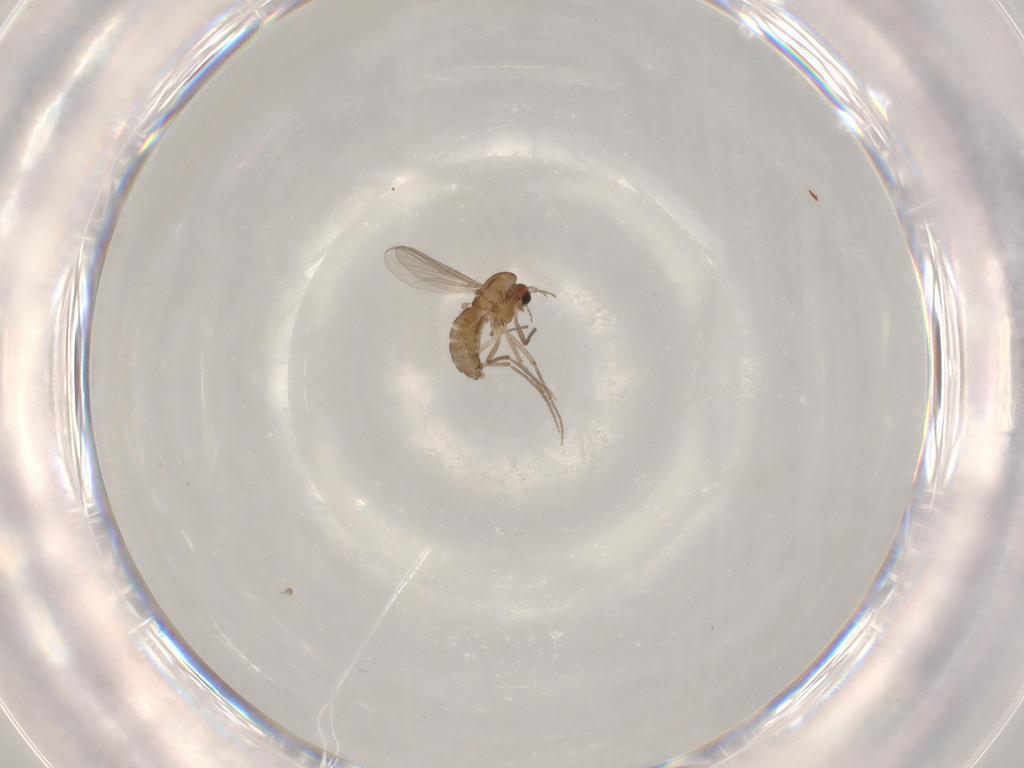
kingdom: Animalia
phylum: Arthropoda
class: Insecta
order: Diptera
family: Chironomidae
